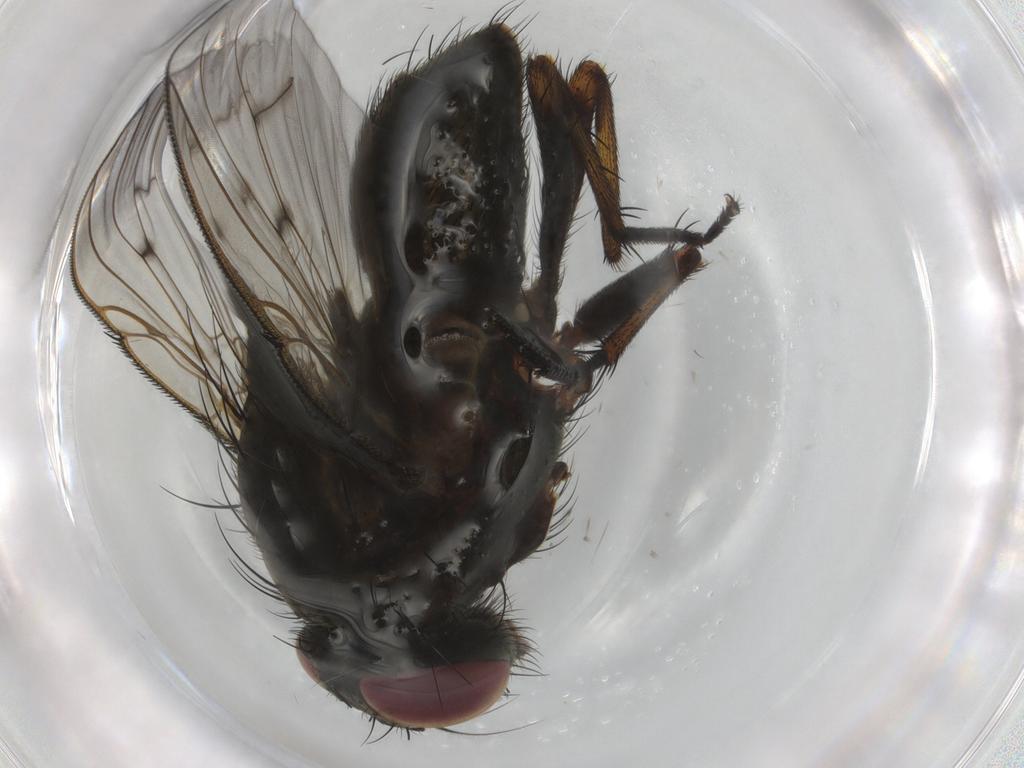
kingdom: Animalia
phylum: Arthropoda
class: Insecta
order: Diptera
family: Muscidae
